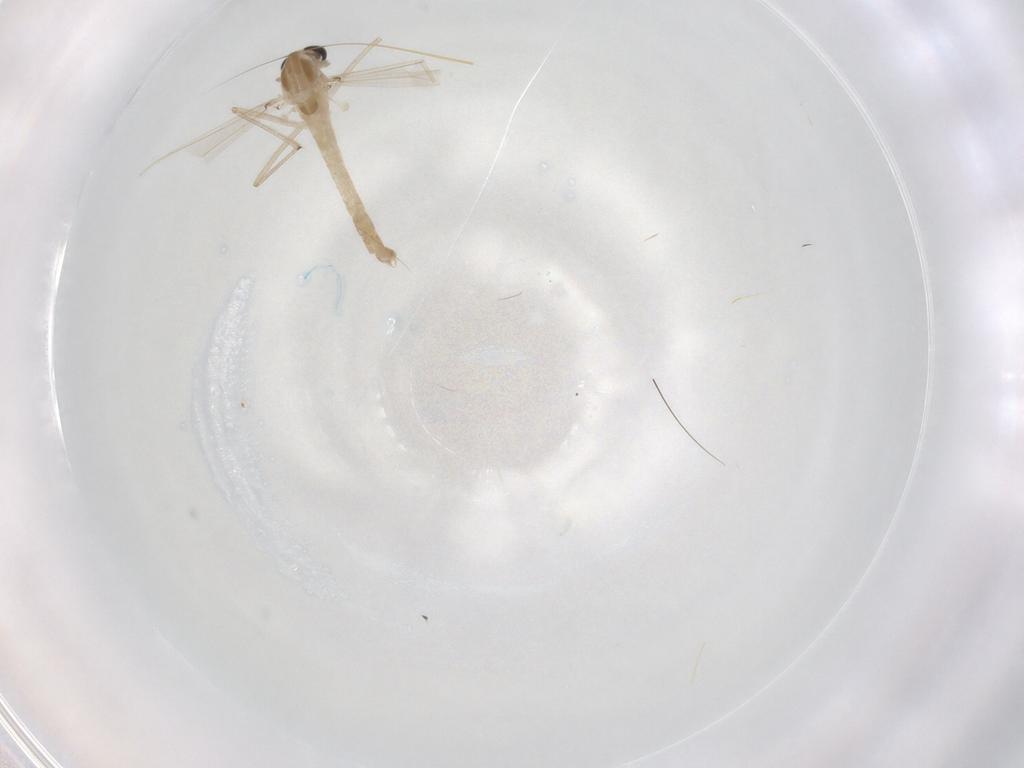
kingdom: Animalia
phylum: Arthropoda
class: Insecta
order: Diptera
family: Chironomidae
